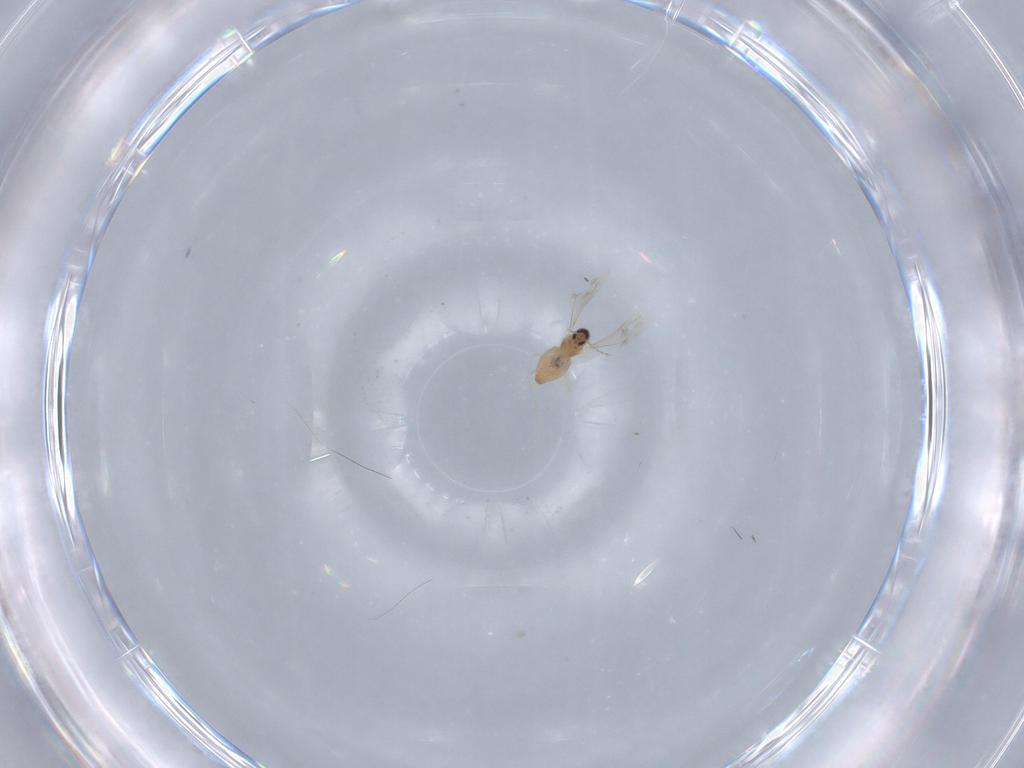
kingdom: Animalia
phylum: Arthropoda
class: Insecta
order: Diptera
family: Cecidomyiidae
